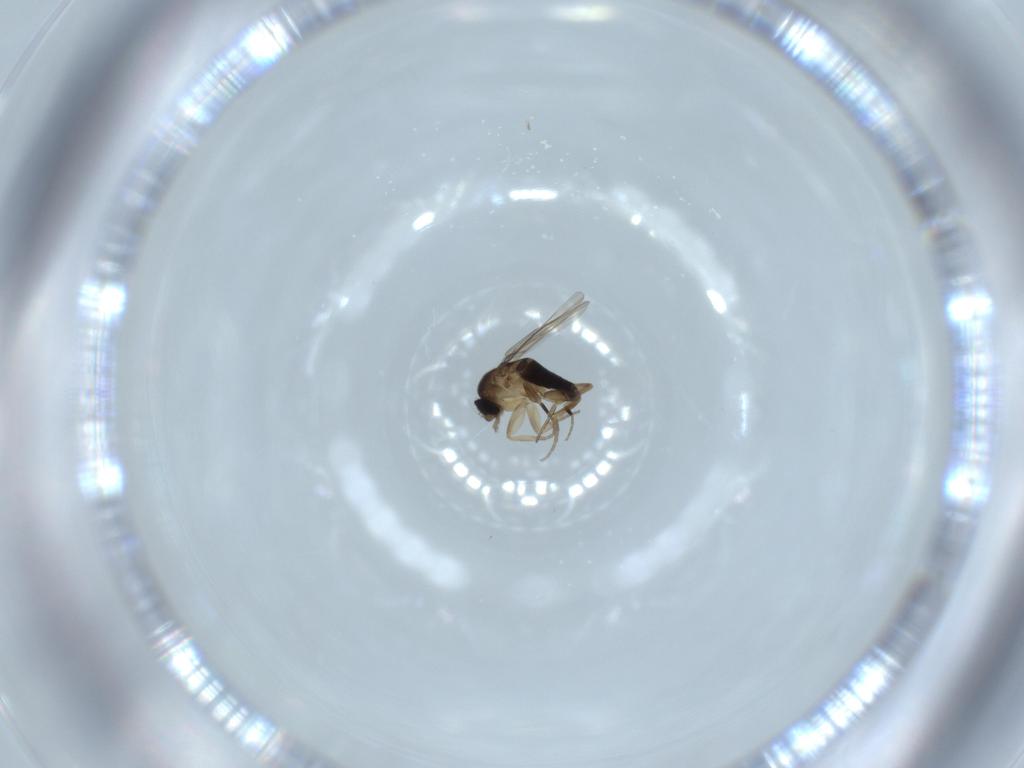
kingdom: Animalia
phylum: Arthropoda
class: Insecta
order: Diptera
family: Phoridae
